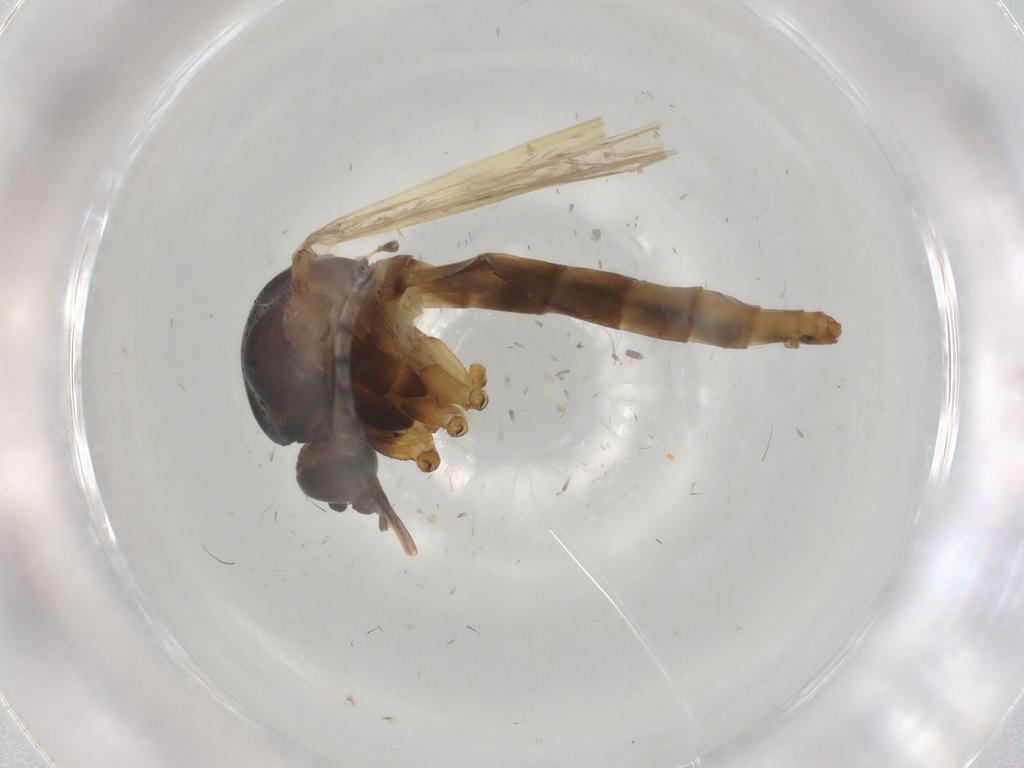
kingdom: Animalia
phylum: Arthropoda
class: Insecta
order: Diptera
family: Chloropidae
